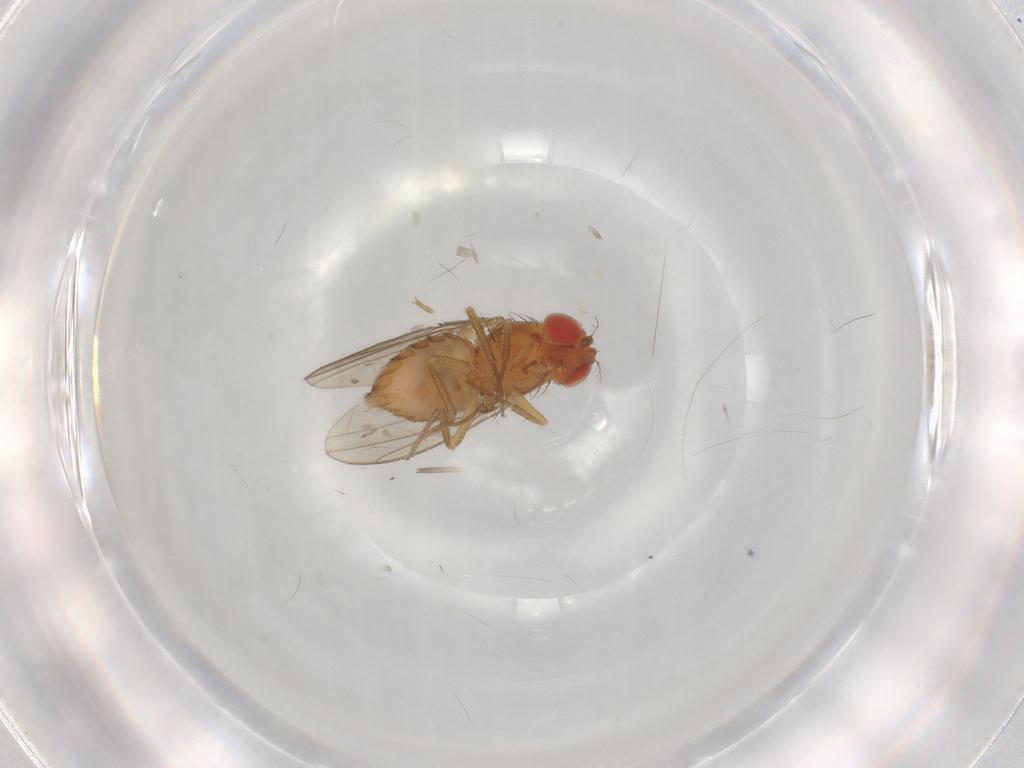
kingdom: Animalia
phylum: Arthropoda
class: Insecta
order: Diptera
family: Drosophilidae
